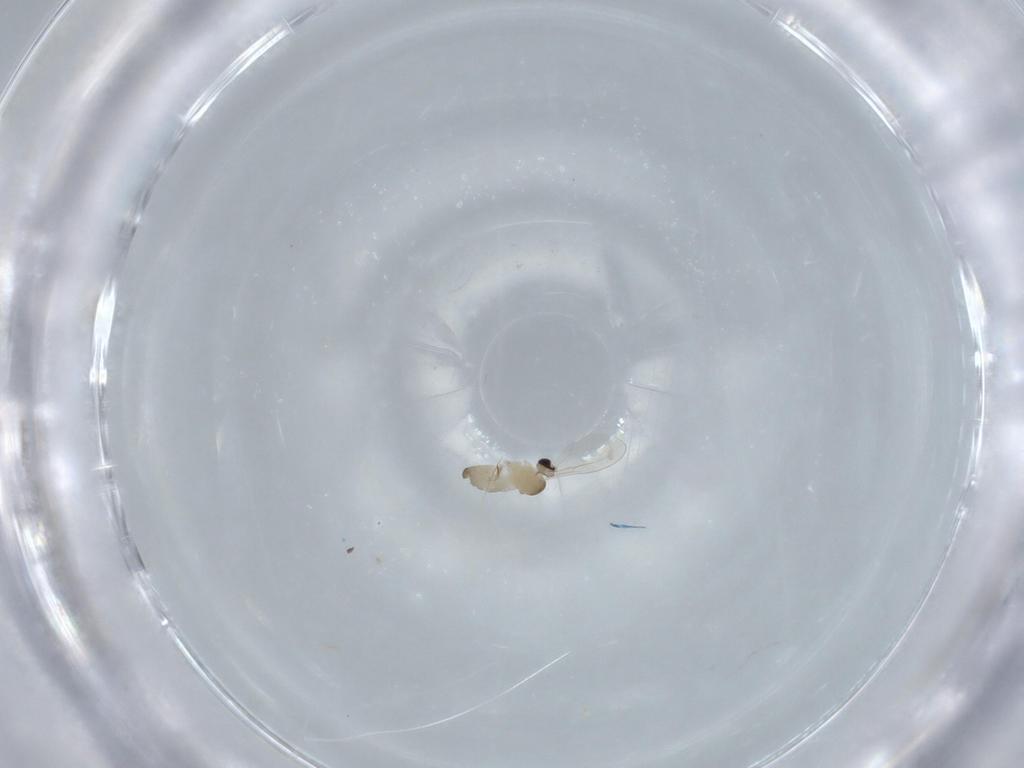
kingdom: Animalia
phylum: Arthropoda
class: Insecta
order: Diptera
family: Cecidomyiidae
